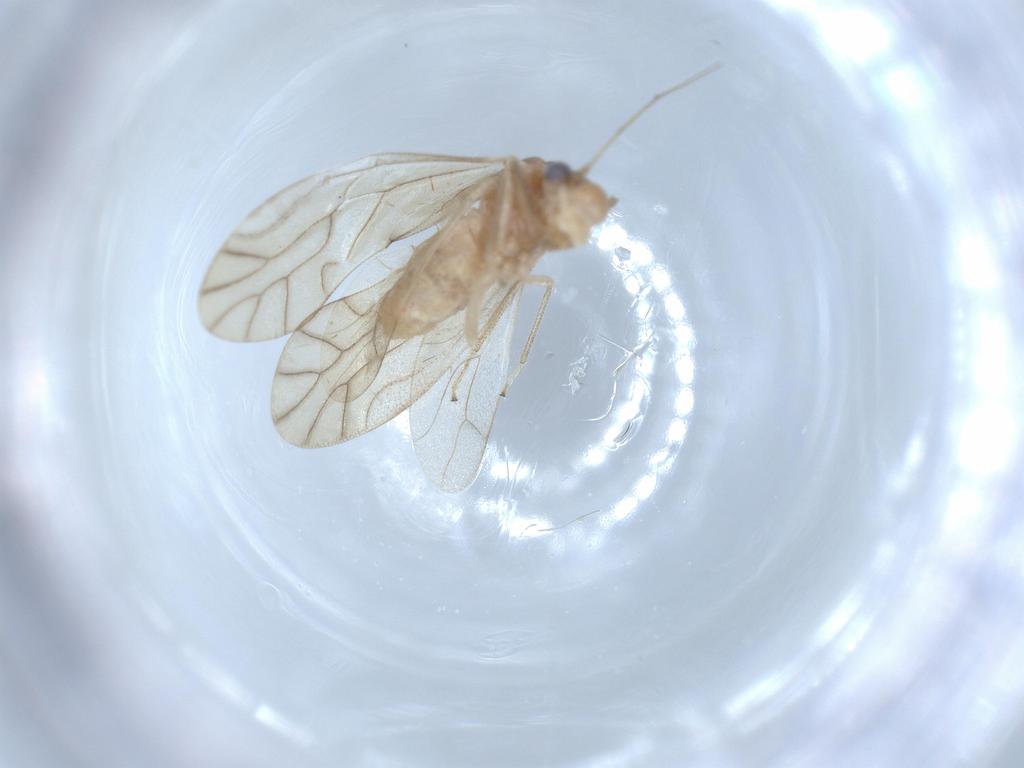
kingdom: Animalia
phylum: Arthropoda
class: Insecta
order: Psocodea
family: Caeciliusidae
